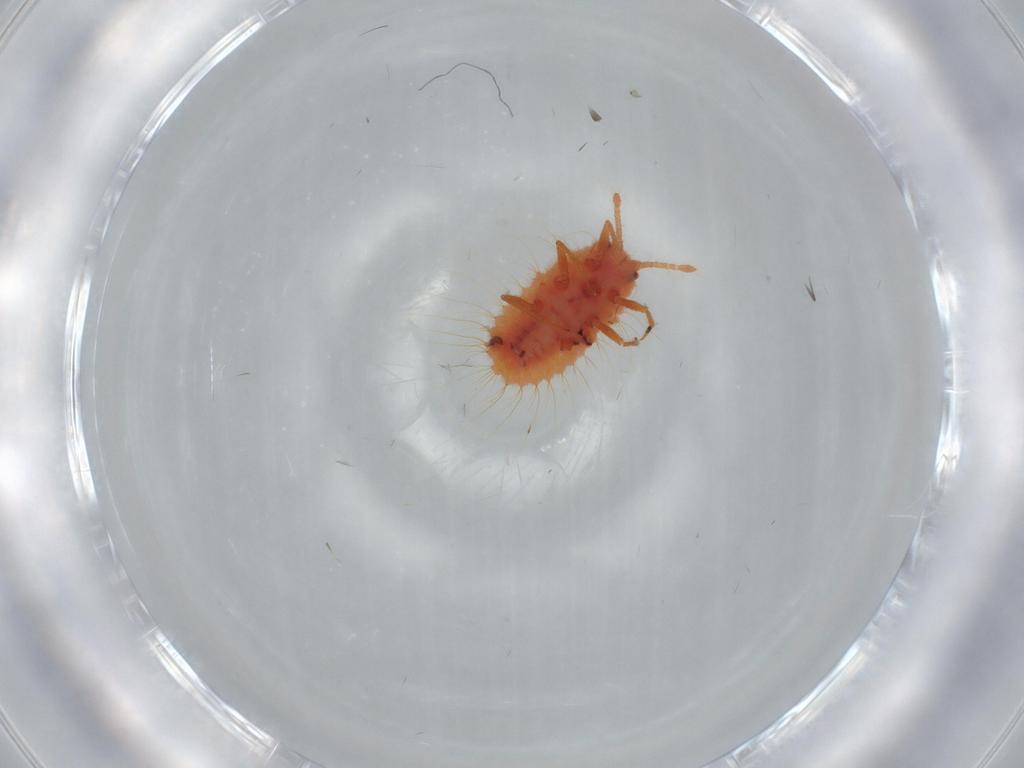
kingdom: Animalia
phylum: Arthropoda
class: Insecta
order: Hemiptera
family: Coccoidea_incertae_sedis
